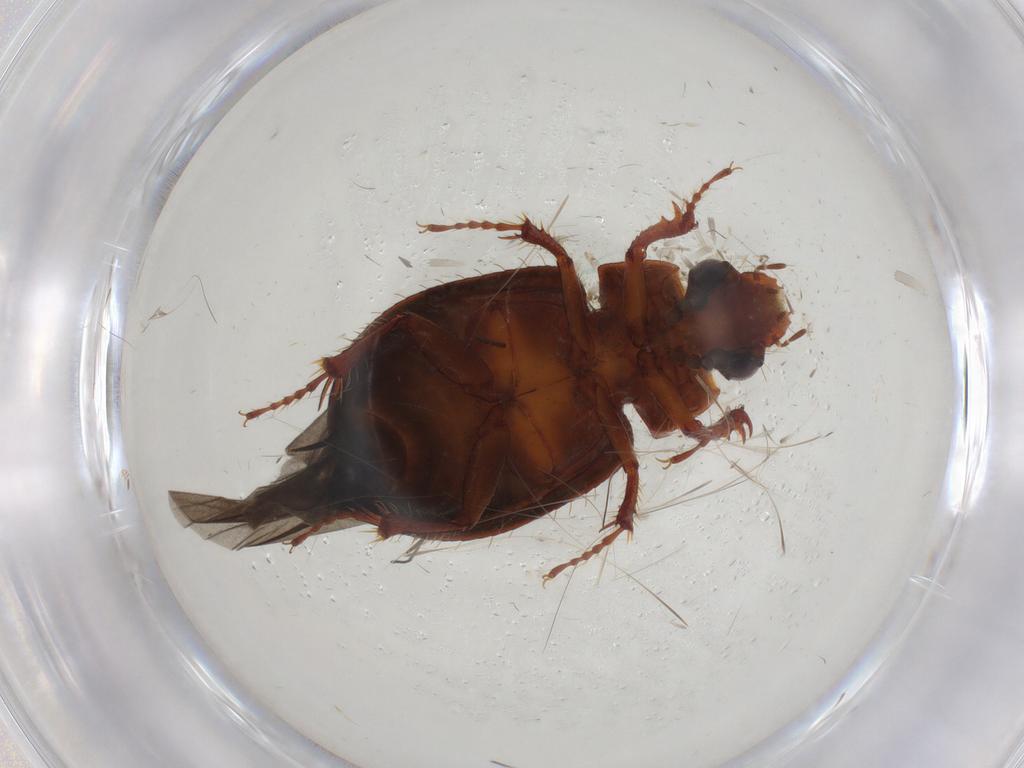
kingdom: Animalia
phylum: Arthropoda
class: Insecta
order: Coleoptera
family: Hybosoridae
